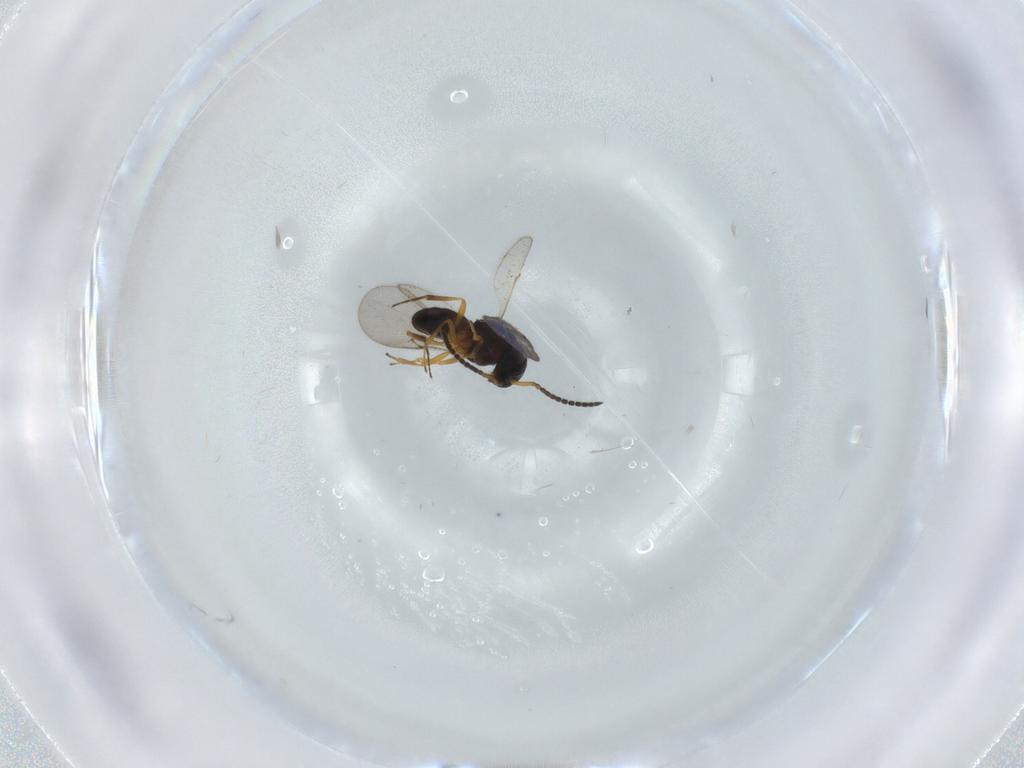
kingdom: Animalia
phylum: Arthropoda
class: Insecta
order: Hymenoptera
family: Scelionidae
